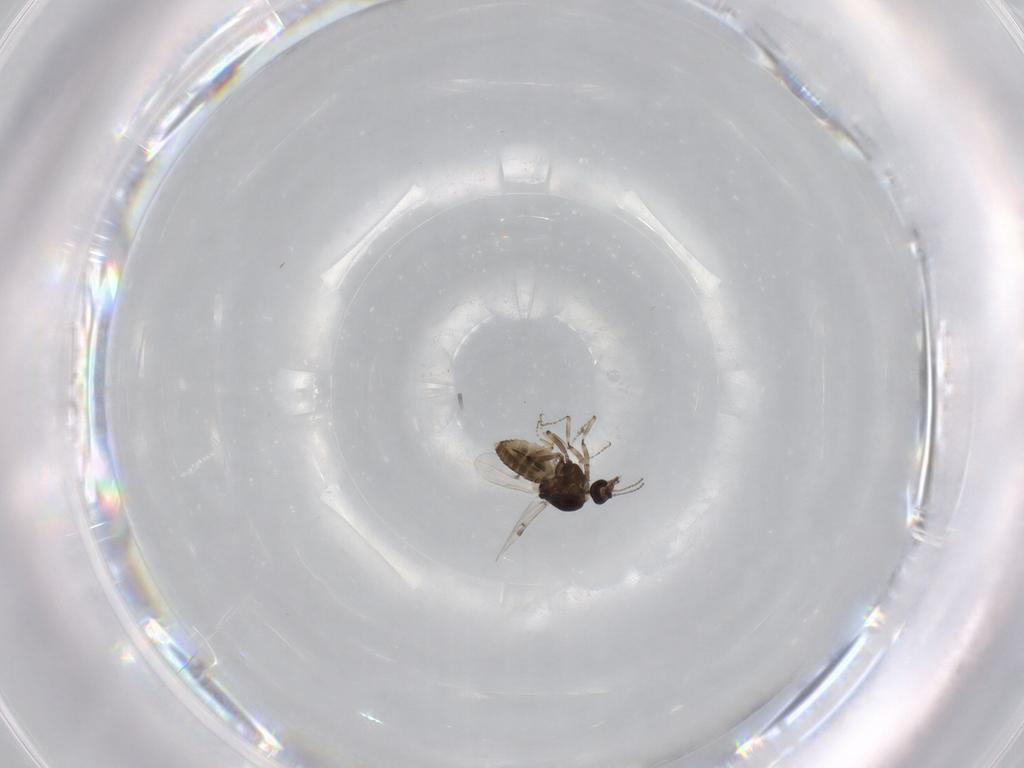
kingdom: Animalia
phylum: Arthropoda
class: Insecta
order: Diptera
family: Ceratopogonidae
